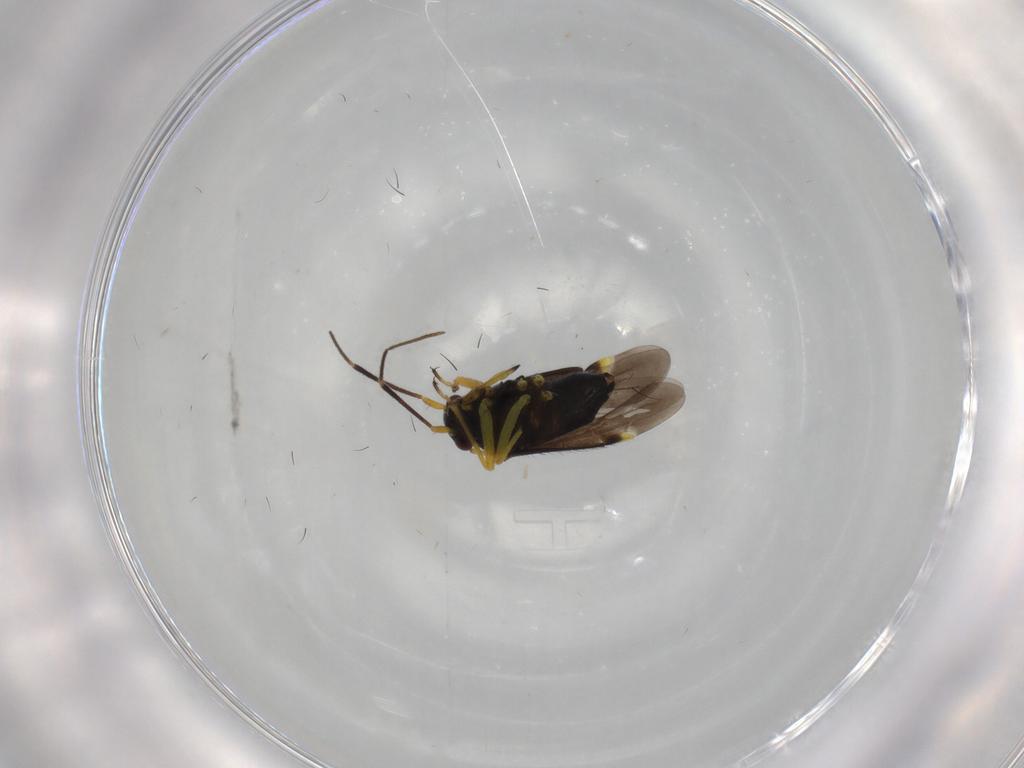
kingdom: Animalia
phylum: Arthropoda
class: Insecta
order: Hemiptera
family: Miridae
